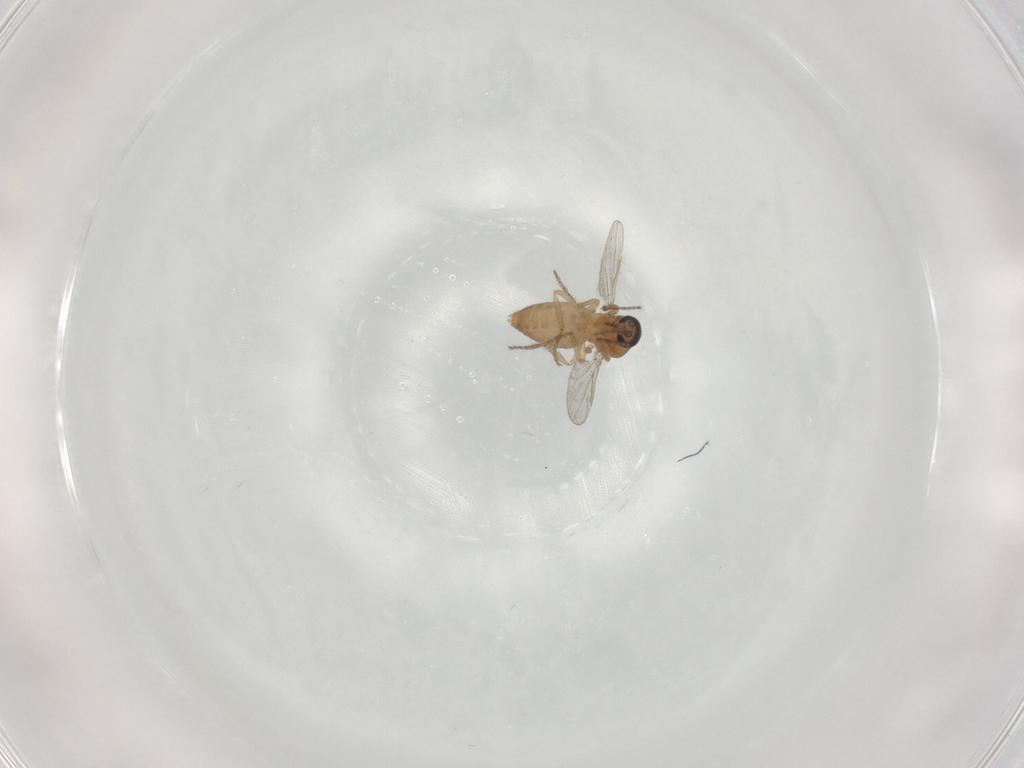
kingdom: Animalia
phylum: Arthropoda
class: Insecta
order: Diptera
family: Ceratopogonidae
